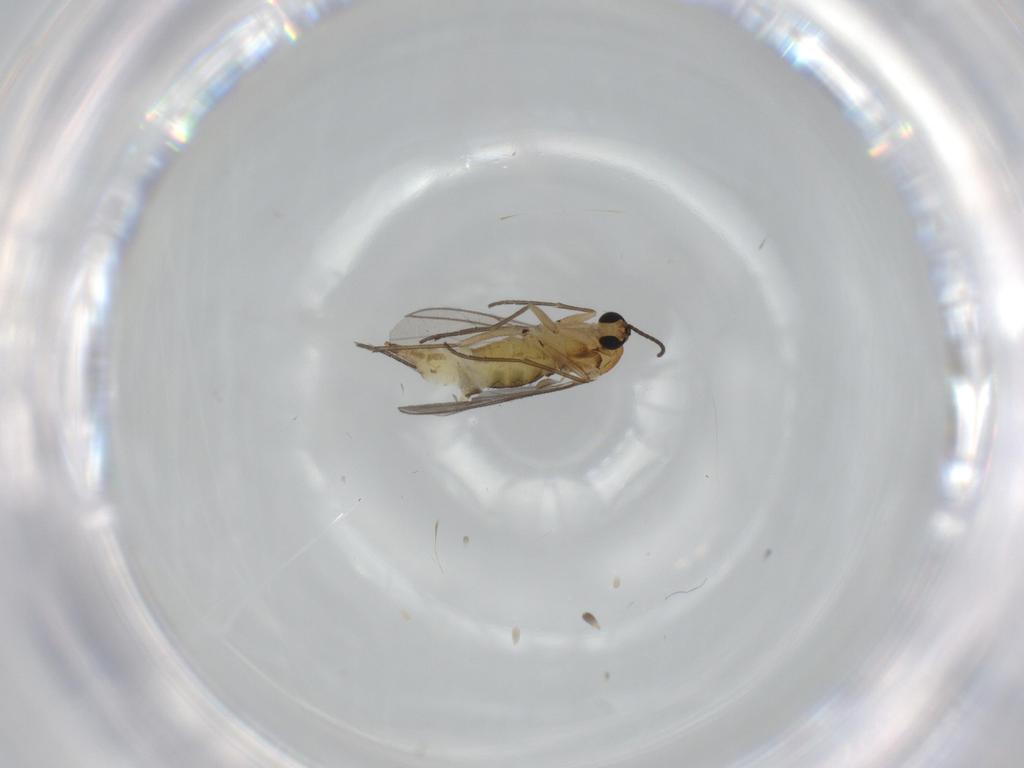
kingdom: Animalia
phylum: Arthropoda
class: Insecta
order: Diptera
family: Sciaridae
